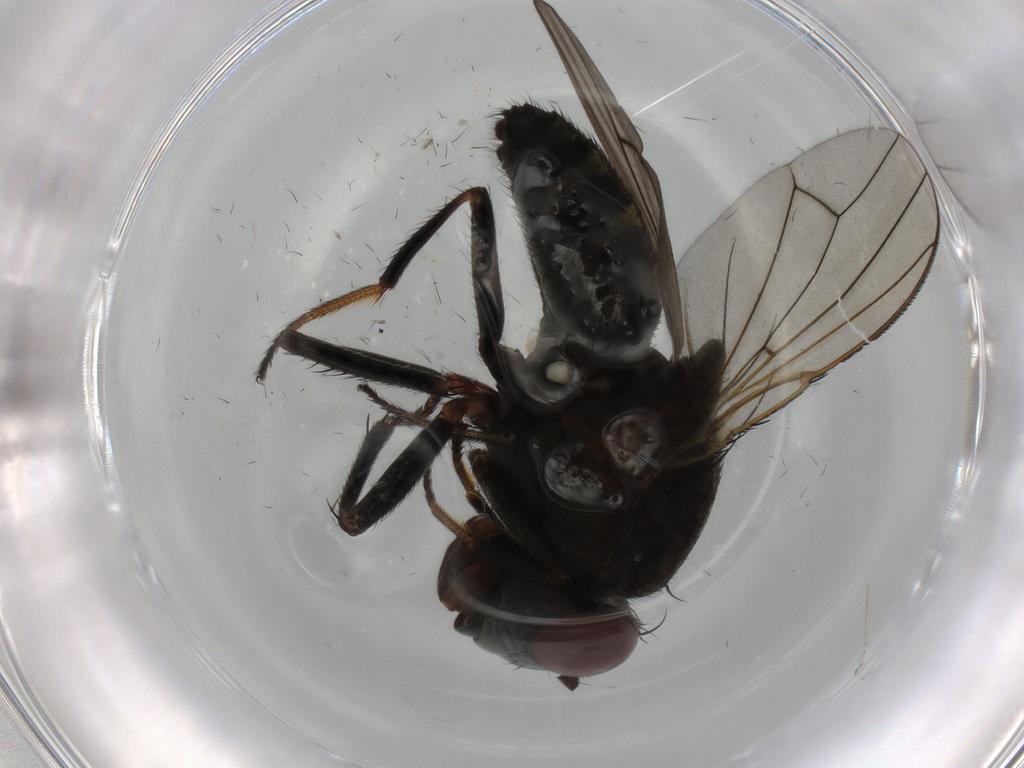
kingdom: Animalia
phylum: Arthropoda
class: Insecta
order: Diptera
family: Ephydridae
